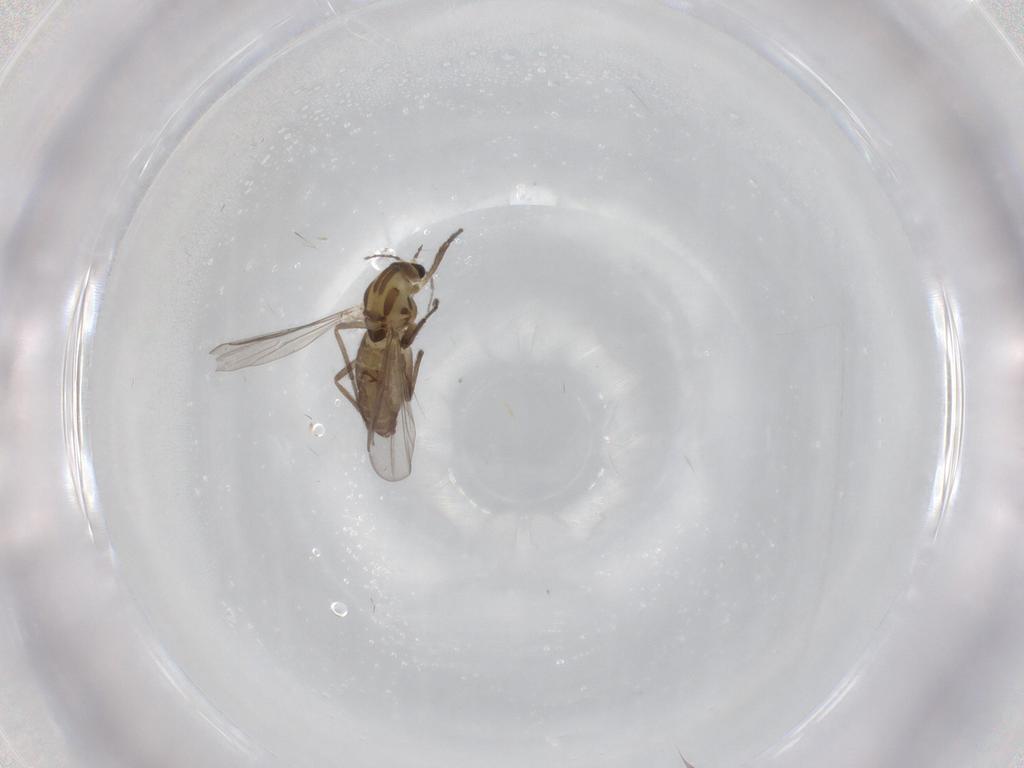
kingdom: Animalia
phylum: Arthropoda
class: Insecta
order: Diptera
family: Chironomidae
